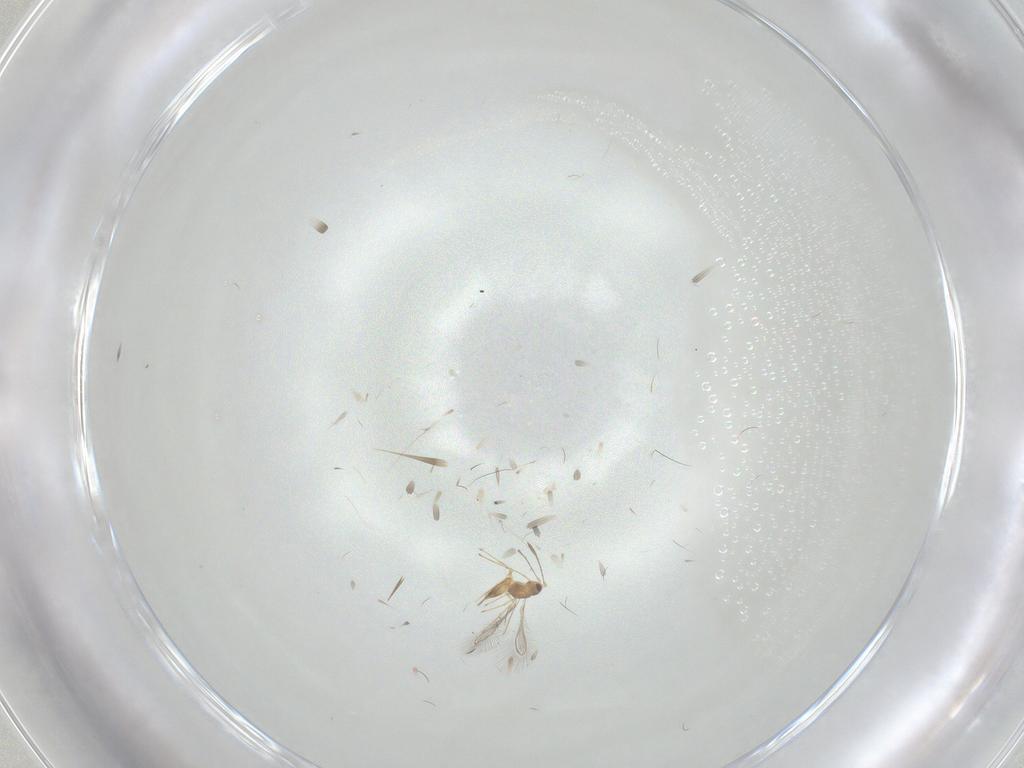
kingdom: Animalia
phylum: Arthropoda
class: Insecta
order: Hymenoptera
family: Mymaridae
